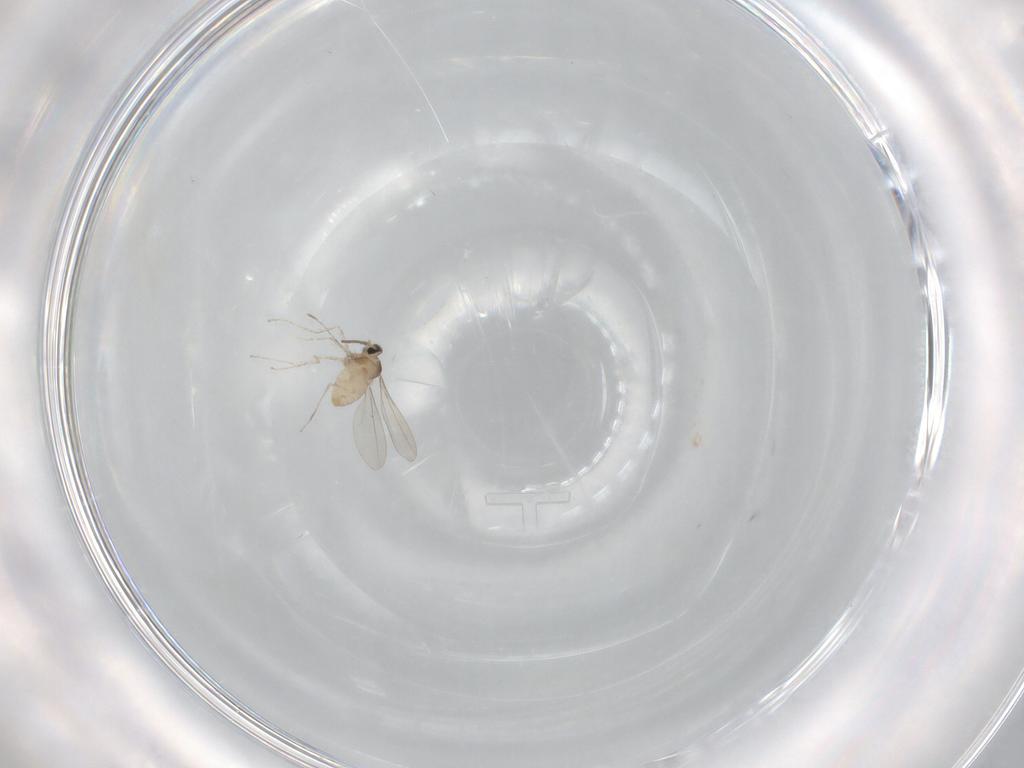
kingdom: Animalia
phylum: Arthropoda
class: Insecta
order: Diptera
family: Cecidomyiidae
